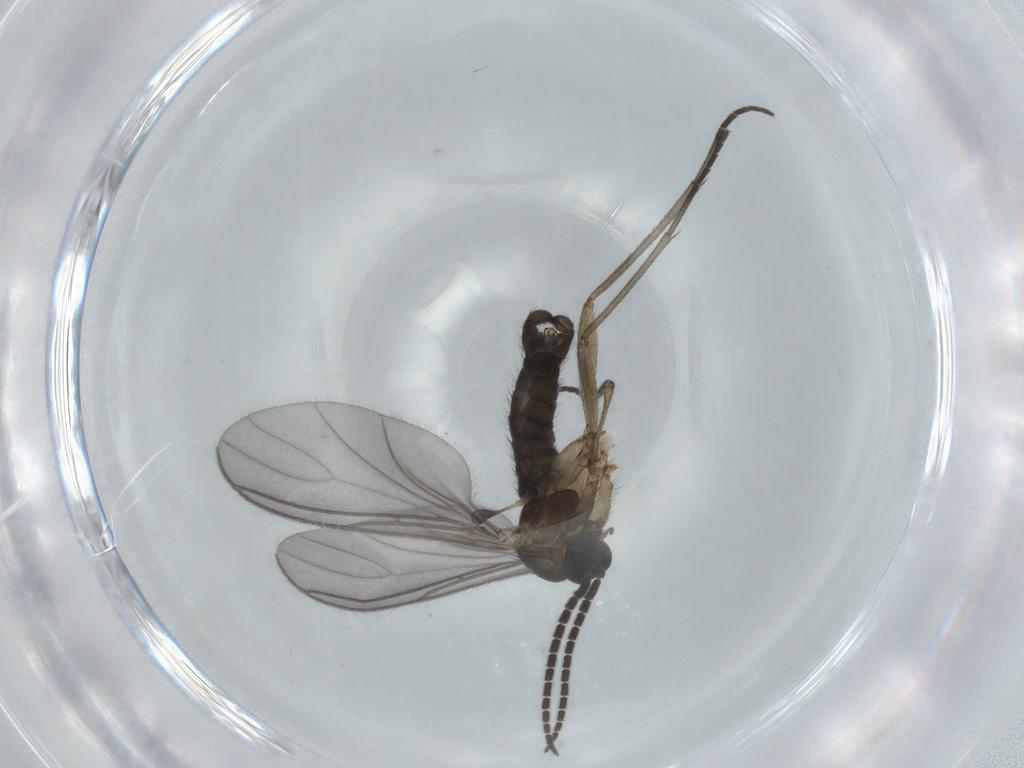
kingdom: Animalia
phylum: Arthropoda
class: Insecta
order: Diptera
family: Sciaridae
